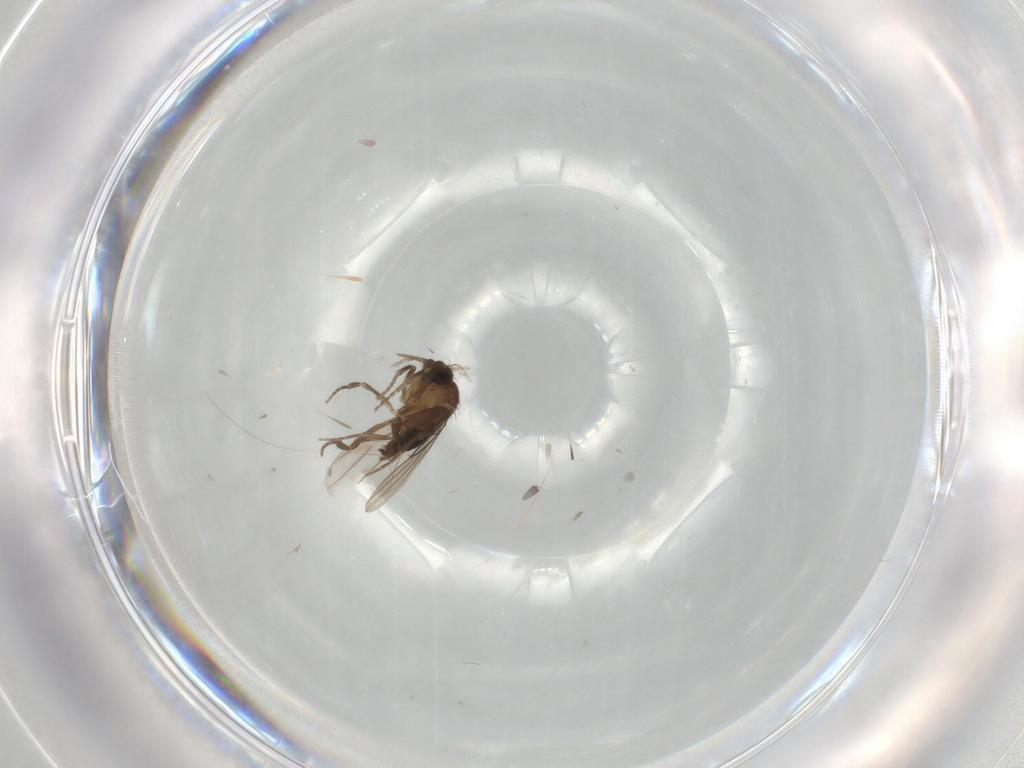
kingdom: Animalia
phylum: Arthropoda
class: Insecta
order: Diptera
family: Phoridae
